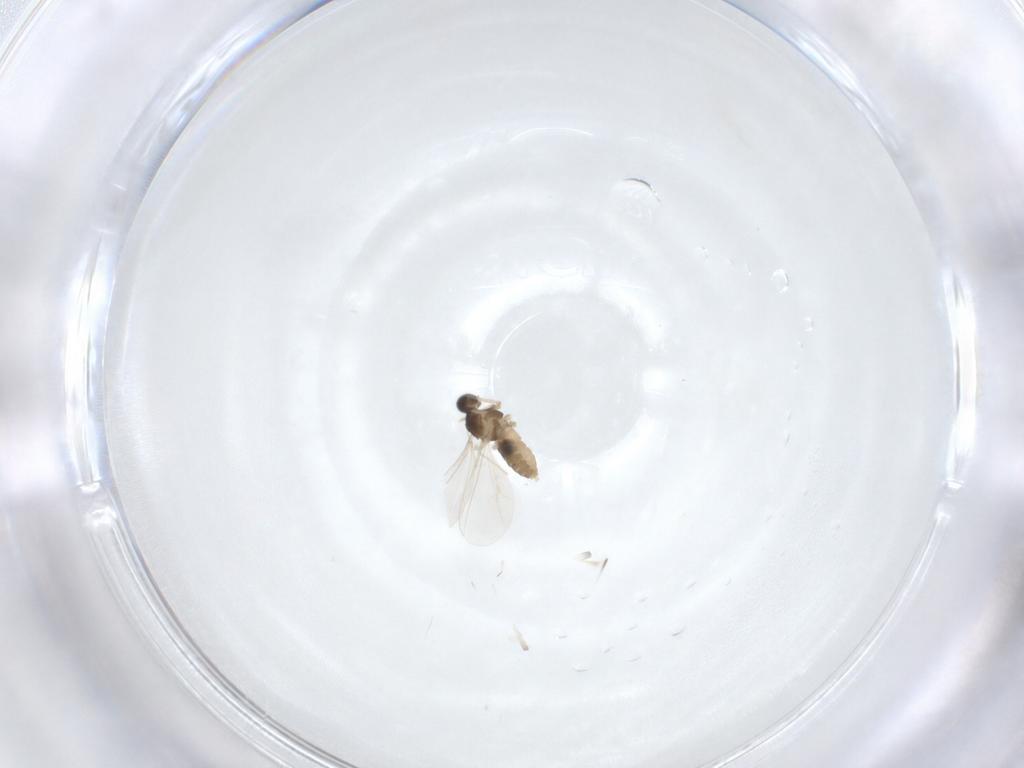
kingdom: Animalia
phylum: Arthropoda
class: Insecta
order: Diptera
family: Cecidomyiidae
